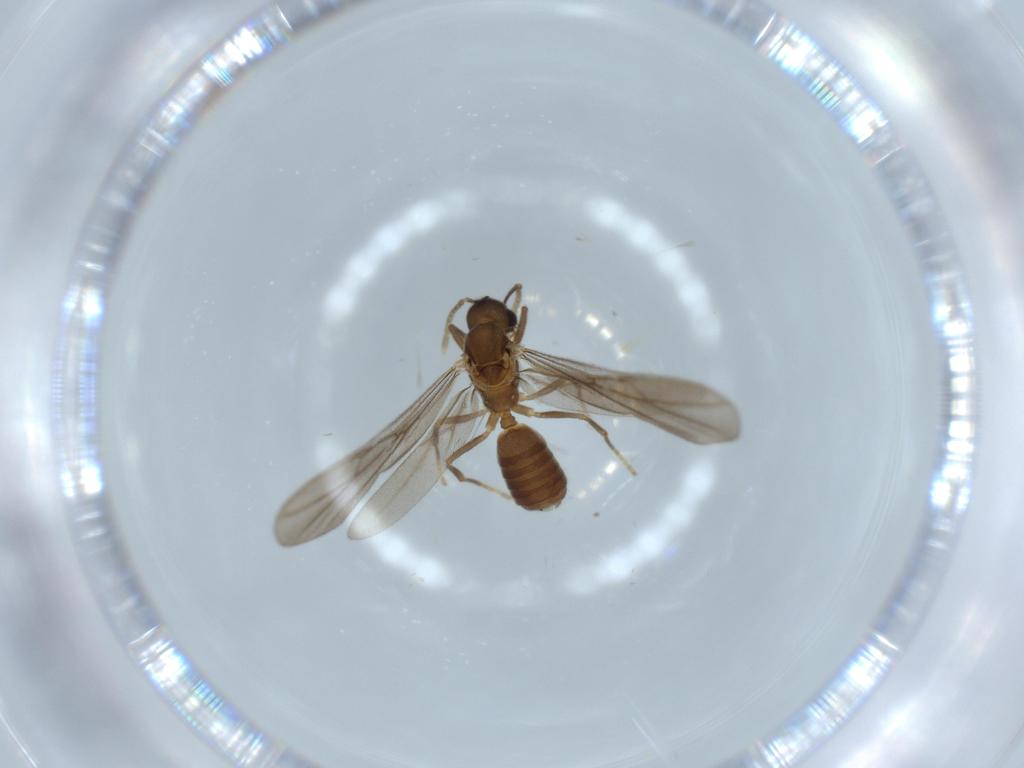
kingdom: Animalia
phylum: Arthropoda
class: Insecta
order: Hymenoptera
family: Formicidae
